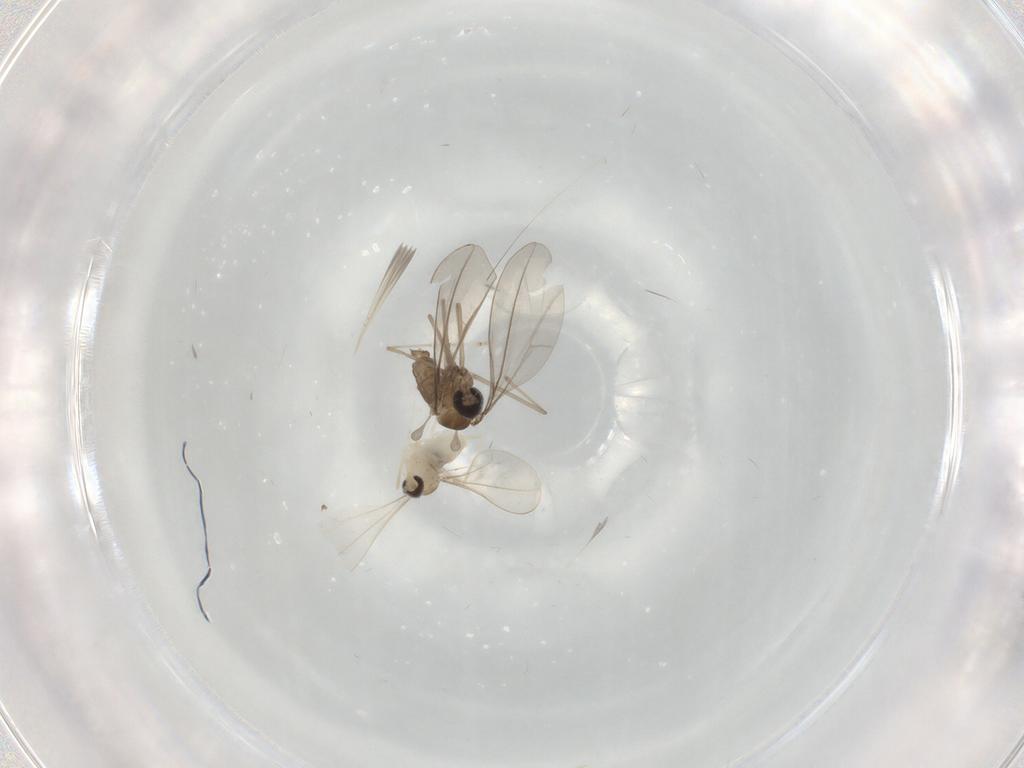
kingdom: Animalia
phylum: Arthropoda
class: Insecta
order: Diptera
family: Cecidomyiidae
